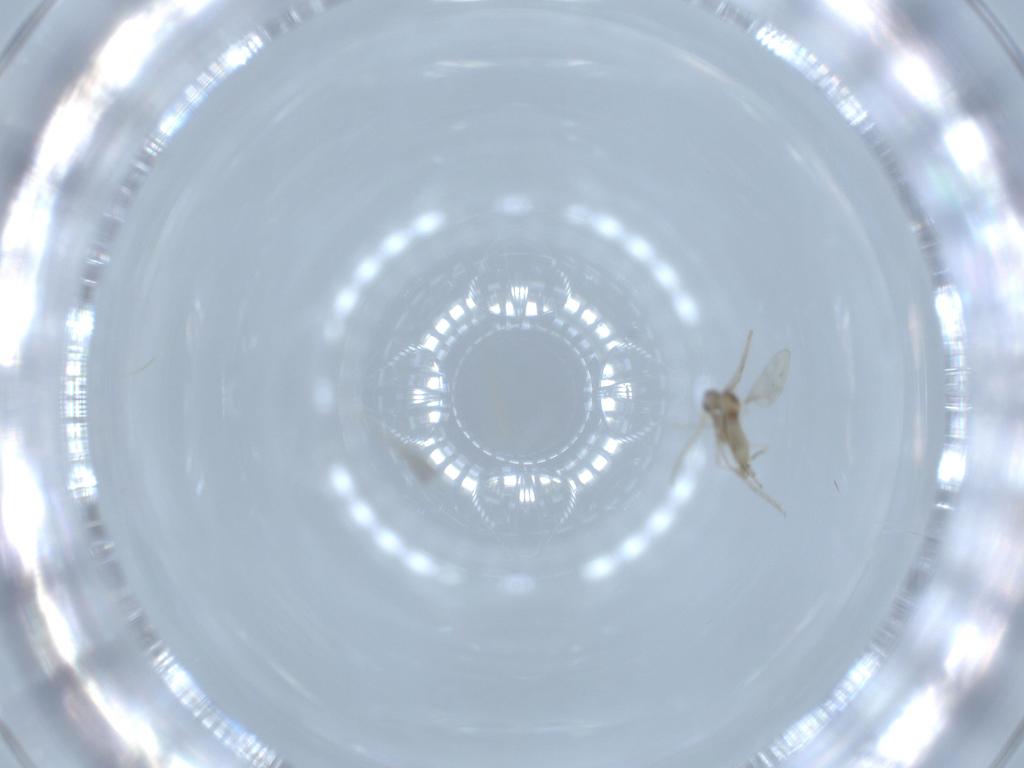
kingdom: Animalia
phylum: Arthropoda
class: Insecta
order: Diptera
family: Cecidomyiidae
